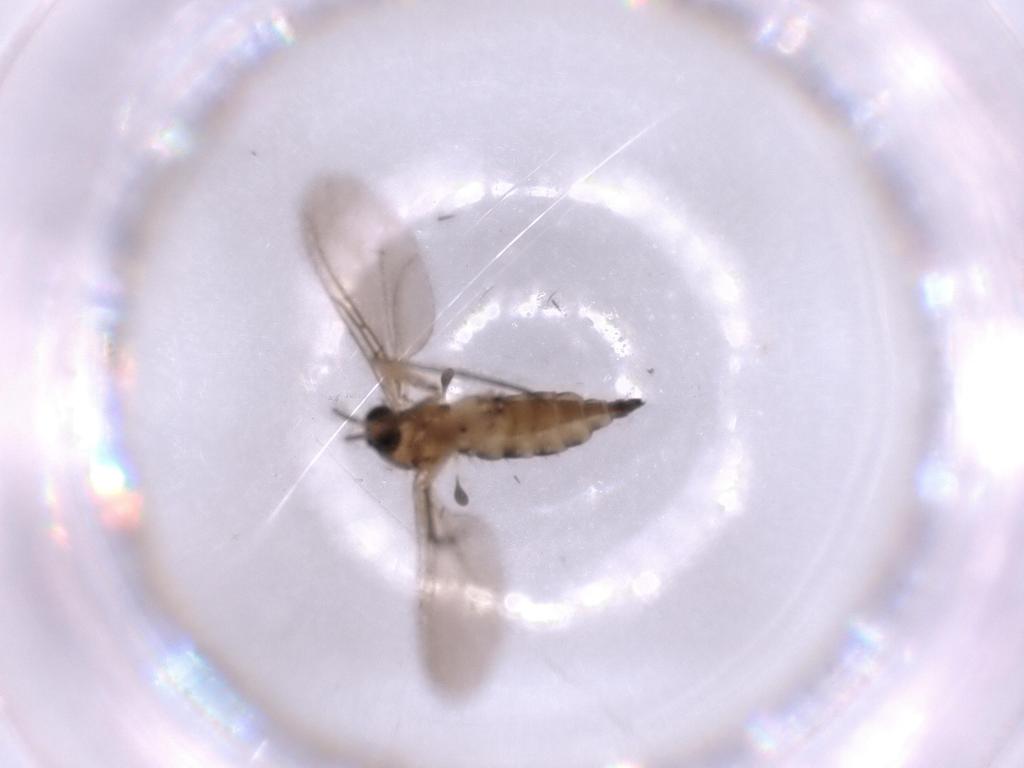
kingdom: Animalia
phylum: Arthropoda
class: Insecta
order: Diptera
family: Sciaridae
